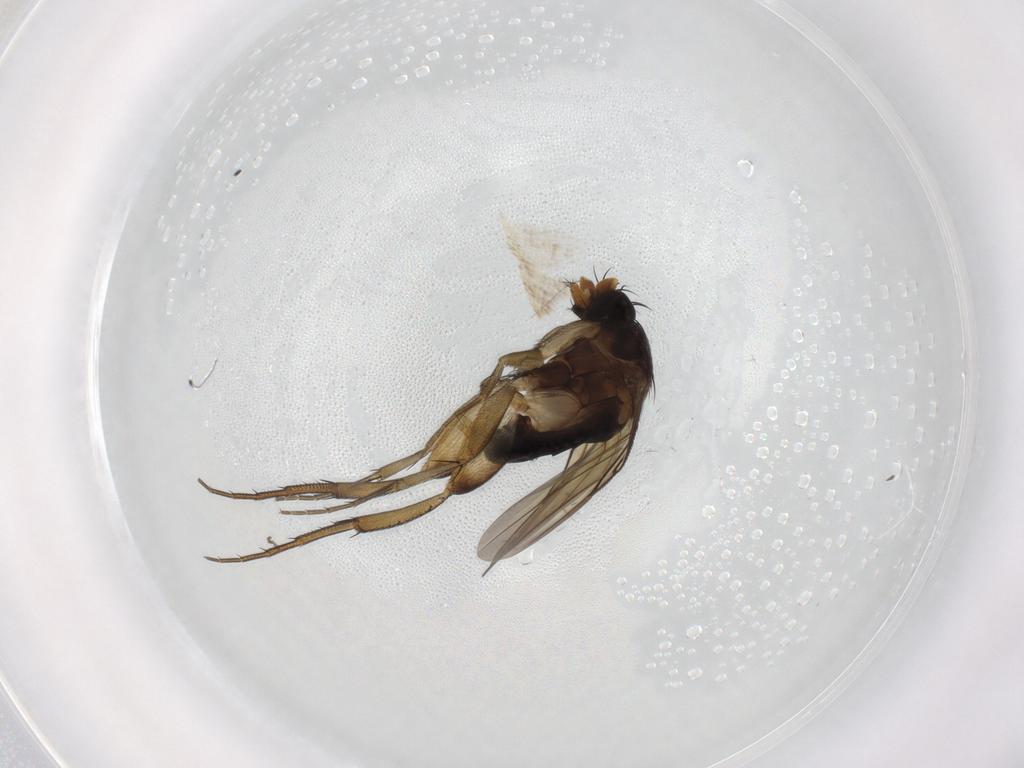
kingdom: Animalia
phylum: Arthropoda
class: Insecta
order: Diptera
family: Phoridae
